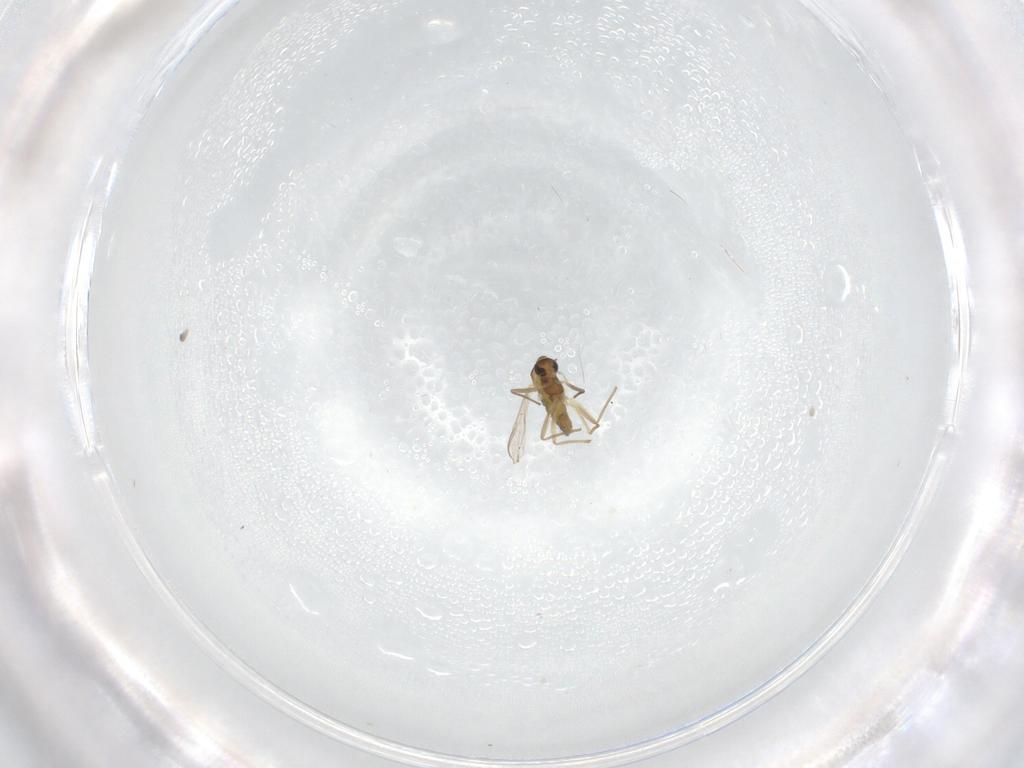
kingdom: Animalia
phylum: Arthropoda
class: Insecta
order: Diptera
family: Chironomidae
